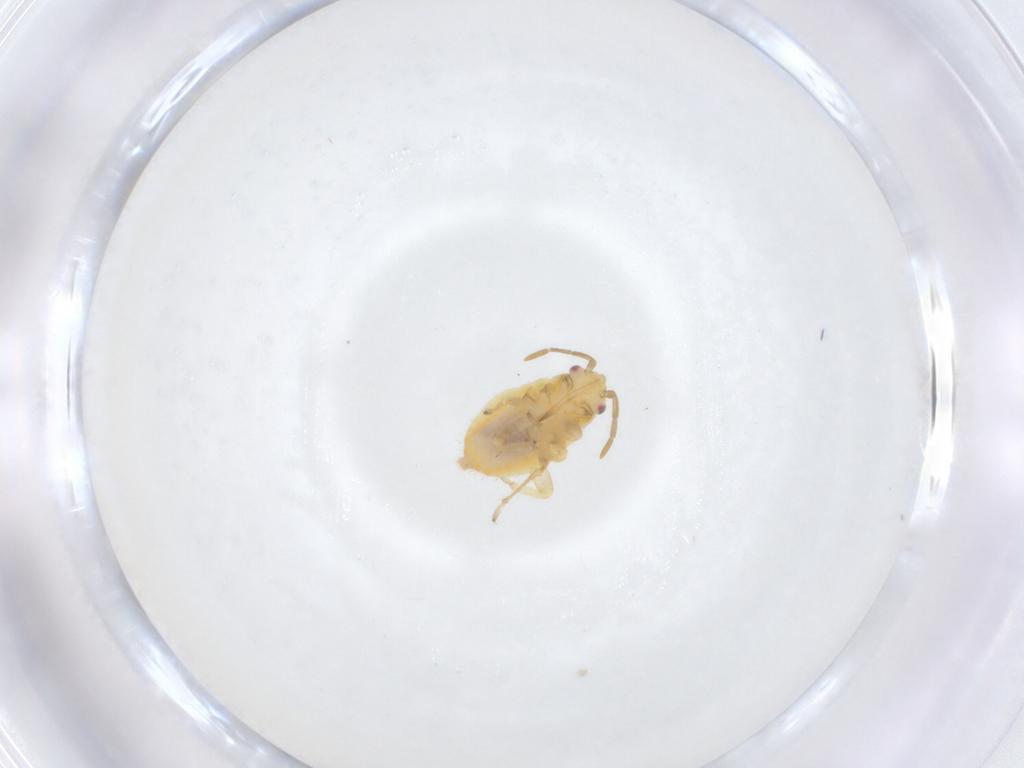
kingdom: Animalia
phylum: Arthropoda
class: Insecta
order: Hemiptera
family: Miridae
